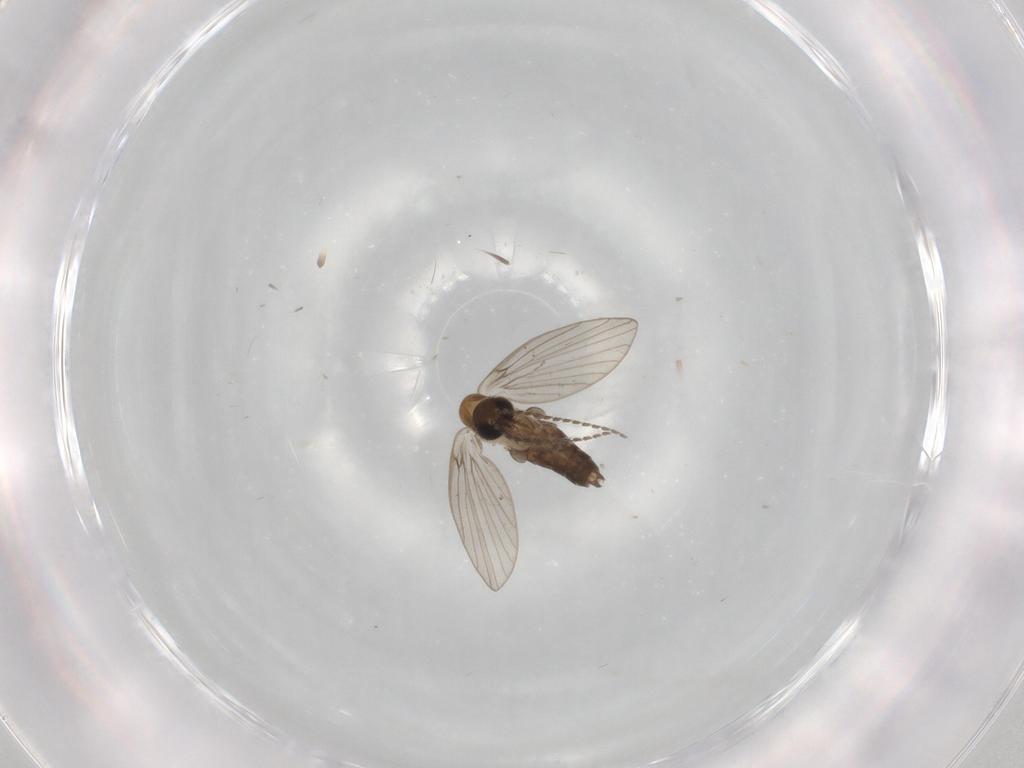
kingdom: Animalia
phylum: Arthropoda
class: Insecta
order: Diptera
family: Psychodidae
